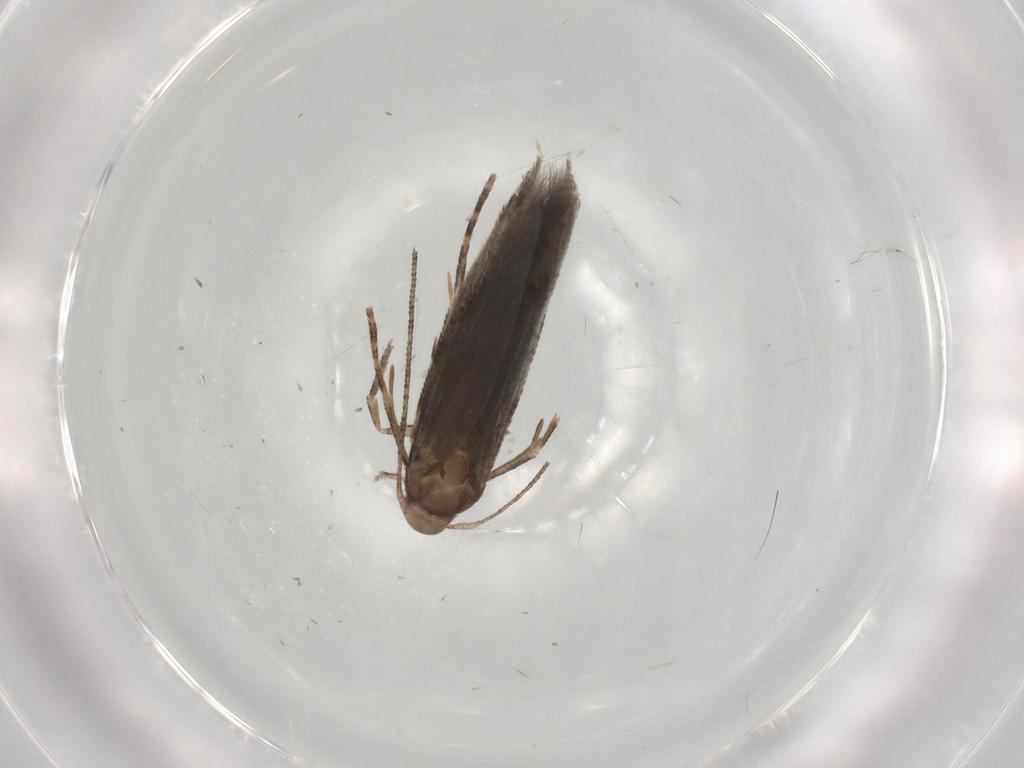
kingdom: Animalia
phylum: Arthropoda
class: Insecta
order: Lepidoptera
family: Momphidae
